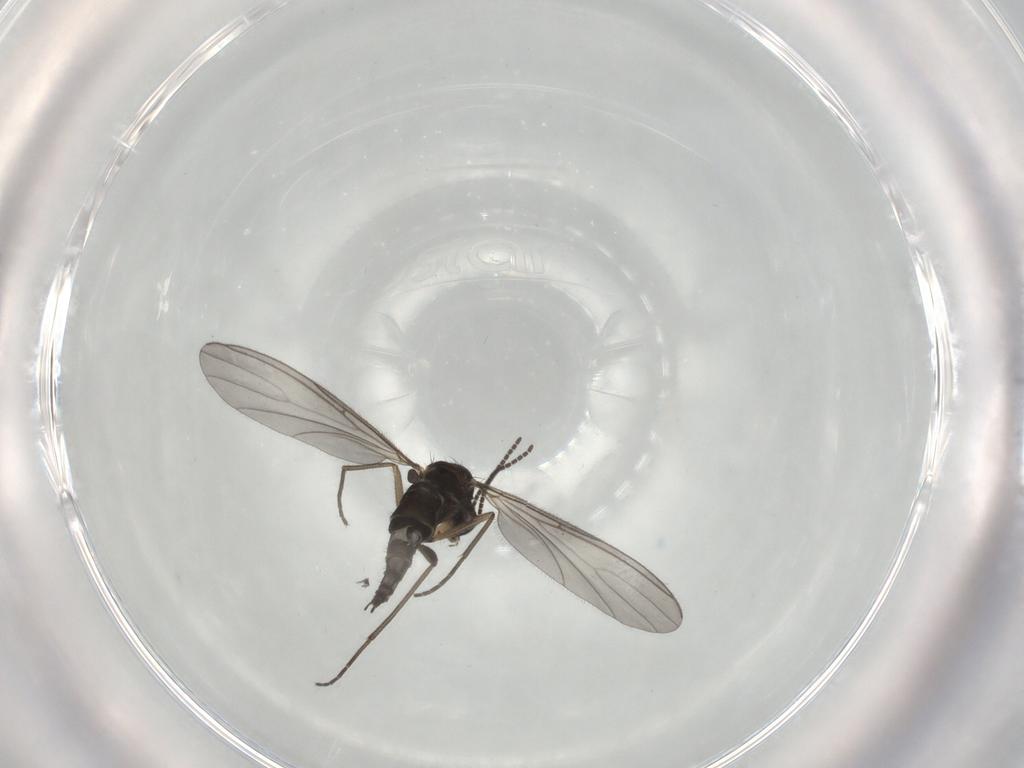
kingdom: Animalia
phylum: Arthropoda
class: Insecta
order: Diptera
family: Sciaridae
